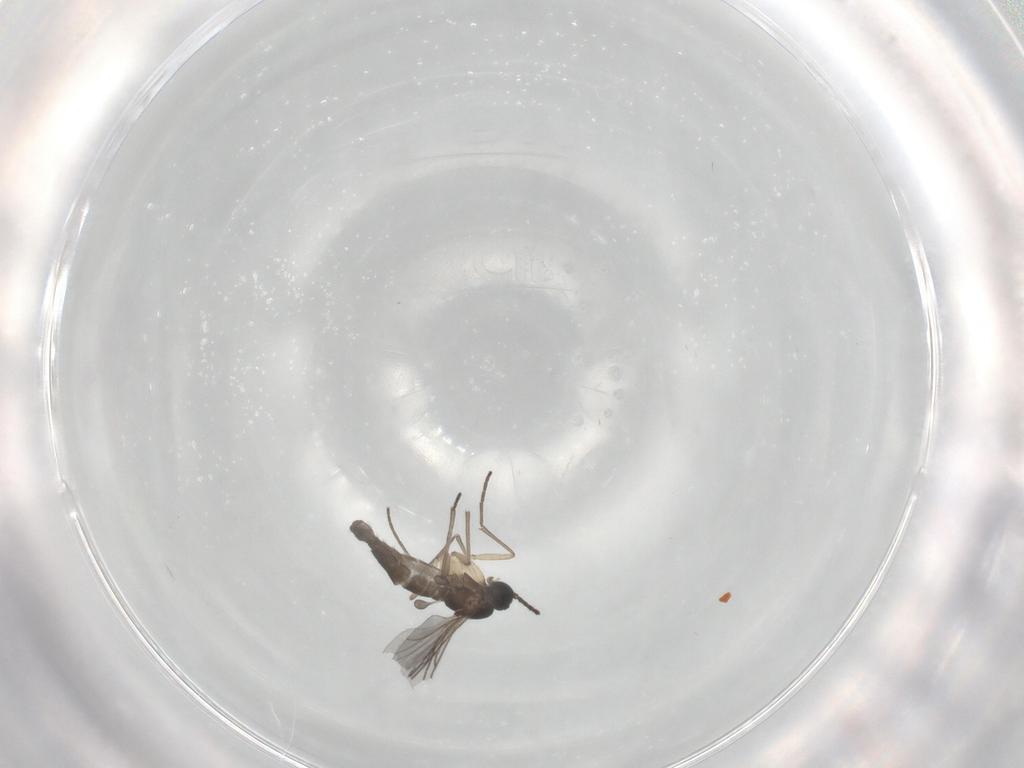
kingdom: Animalia
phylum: Arthropoda
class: Insecta
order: Diptera
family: Sciaridae
